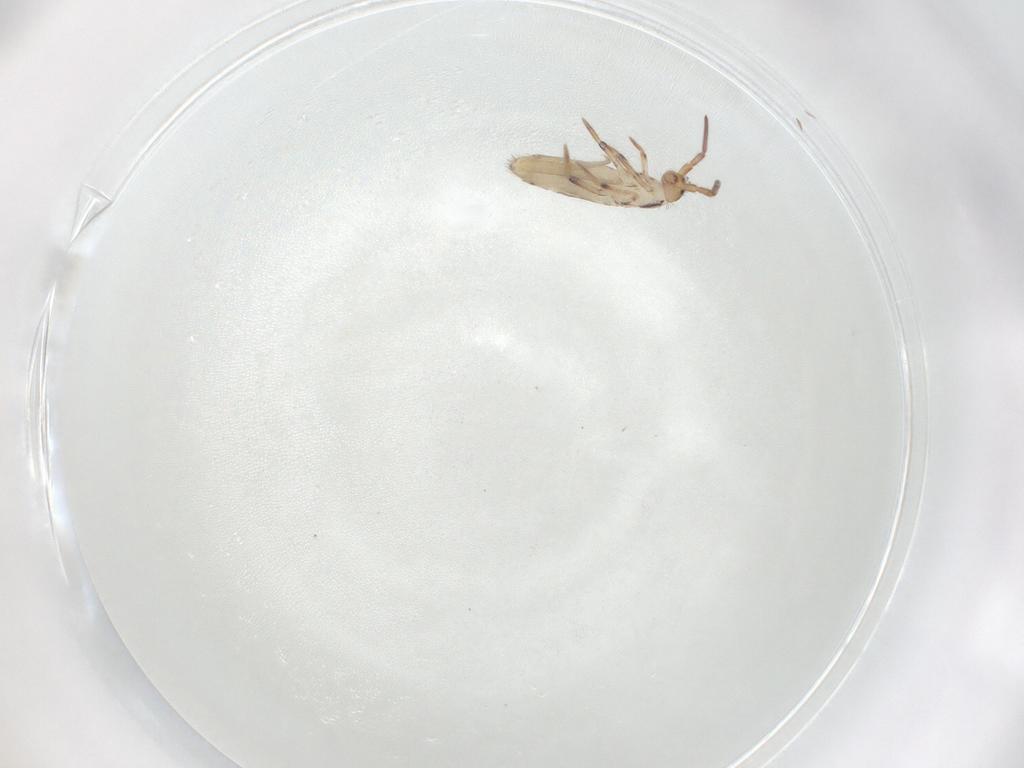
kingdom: Animalia
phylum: Arthropoda
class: Collembola
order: Entomobryomorpha
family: Entomobryidae
